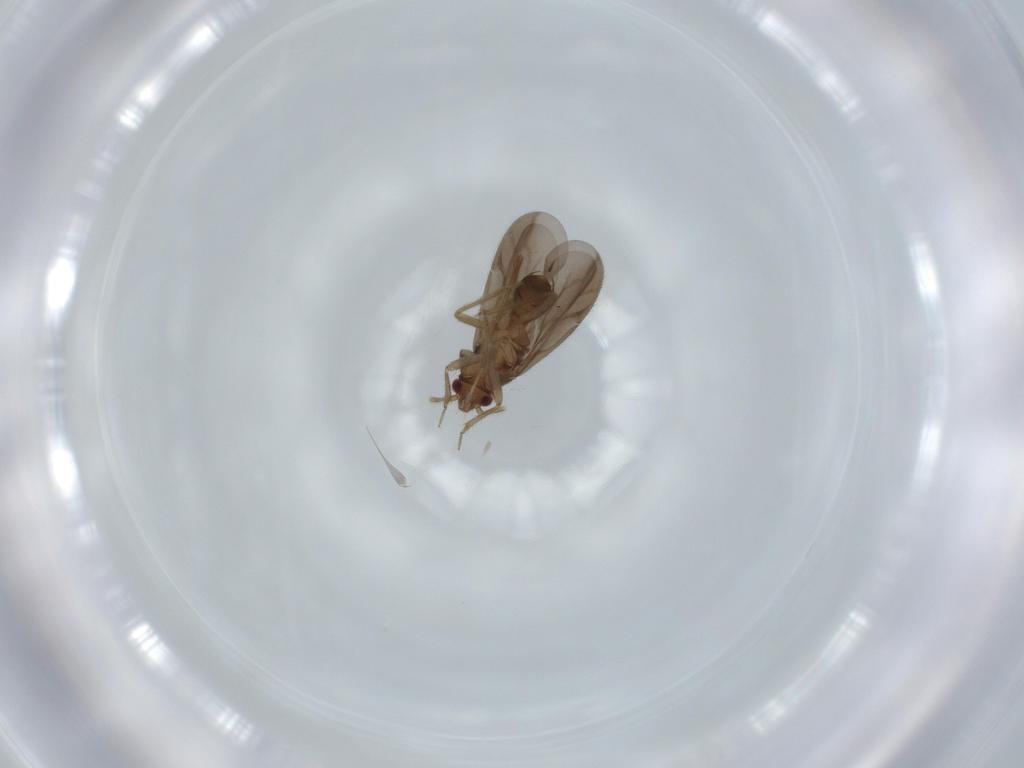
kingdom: Animalia
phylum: Arthropoda
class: Insecta
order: Hemiptera
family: Ceratocombidae
